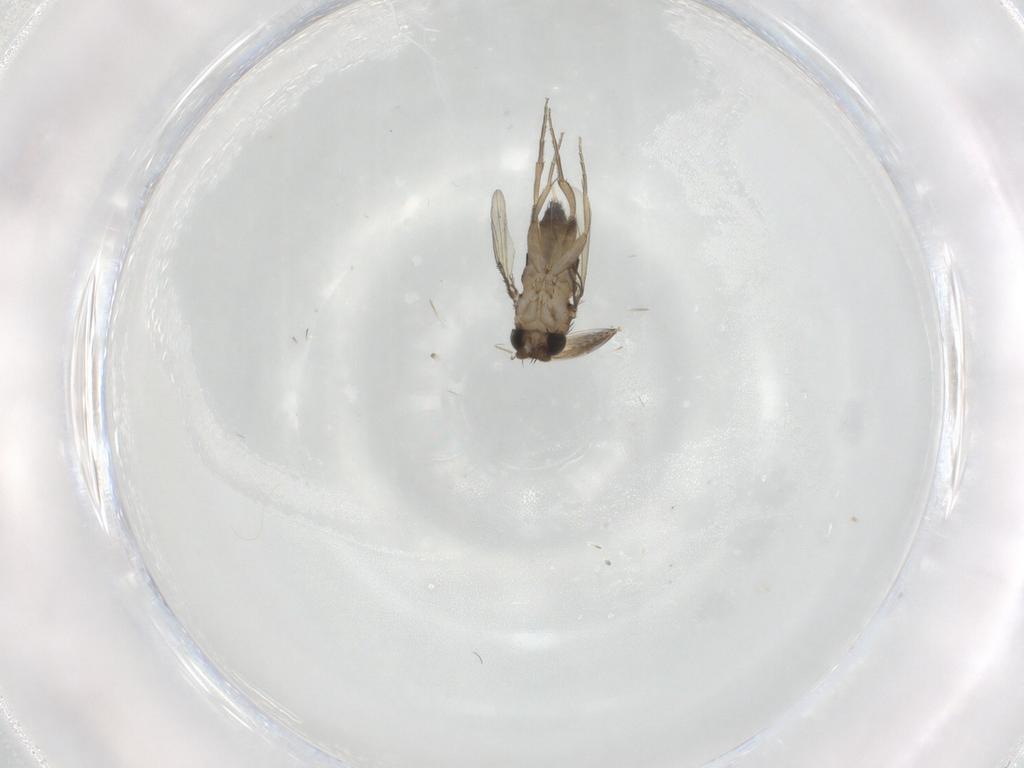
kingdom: Animalia
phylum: Arthropoda
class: Insecta
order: Diptera
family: Phoridae
